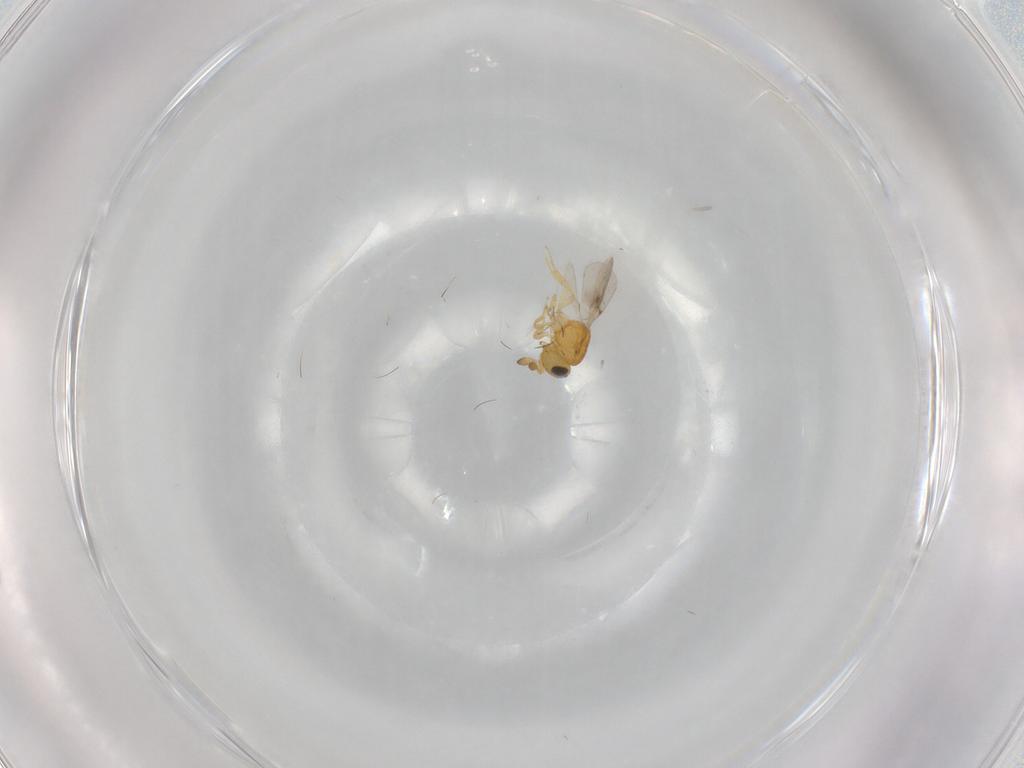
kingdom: Animalia
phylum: Arthropoda
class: Insecta
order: Hymenoptera
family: Scelionidae
